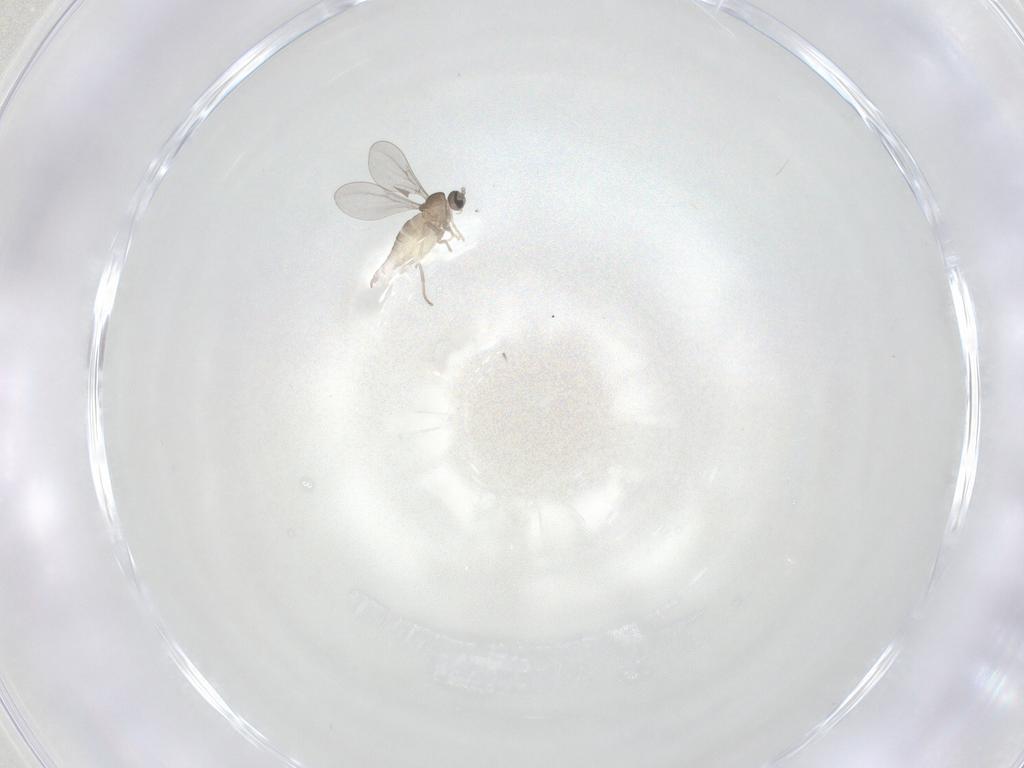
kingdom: Animalia
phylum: Arthropoda
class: Insecta
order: Diptera
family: Cecidomyiidae
